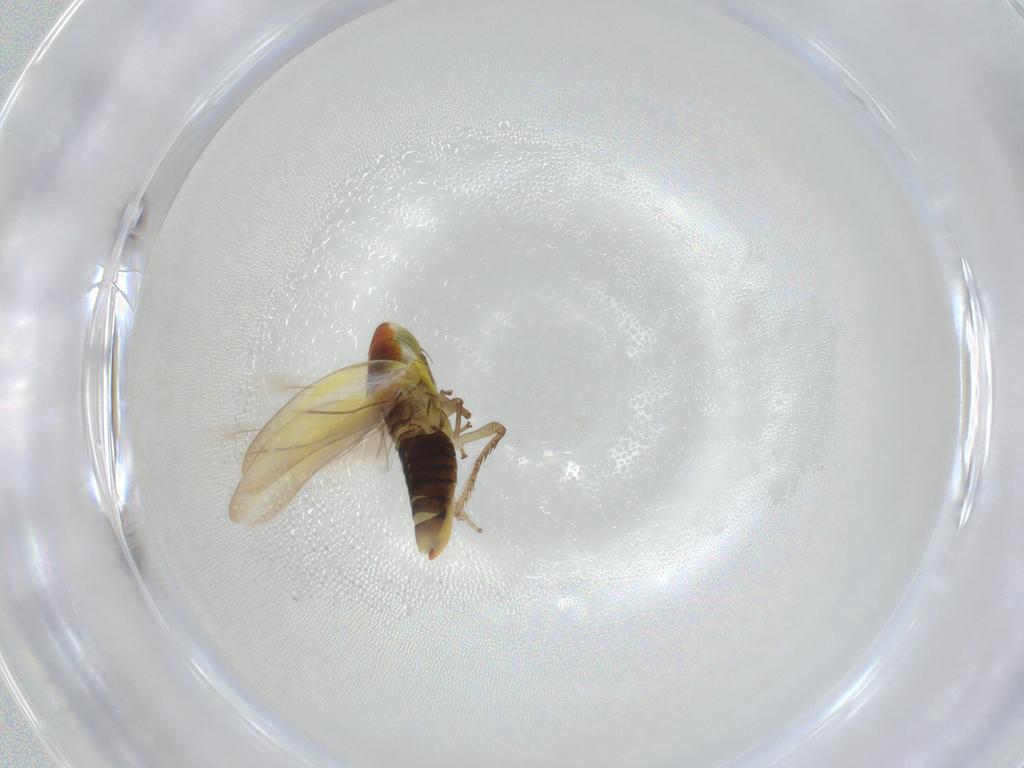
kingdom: Animalia
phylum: Arthropoda
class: Insecta
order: Hemiptera
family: Cicadellidae
